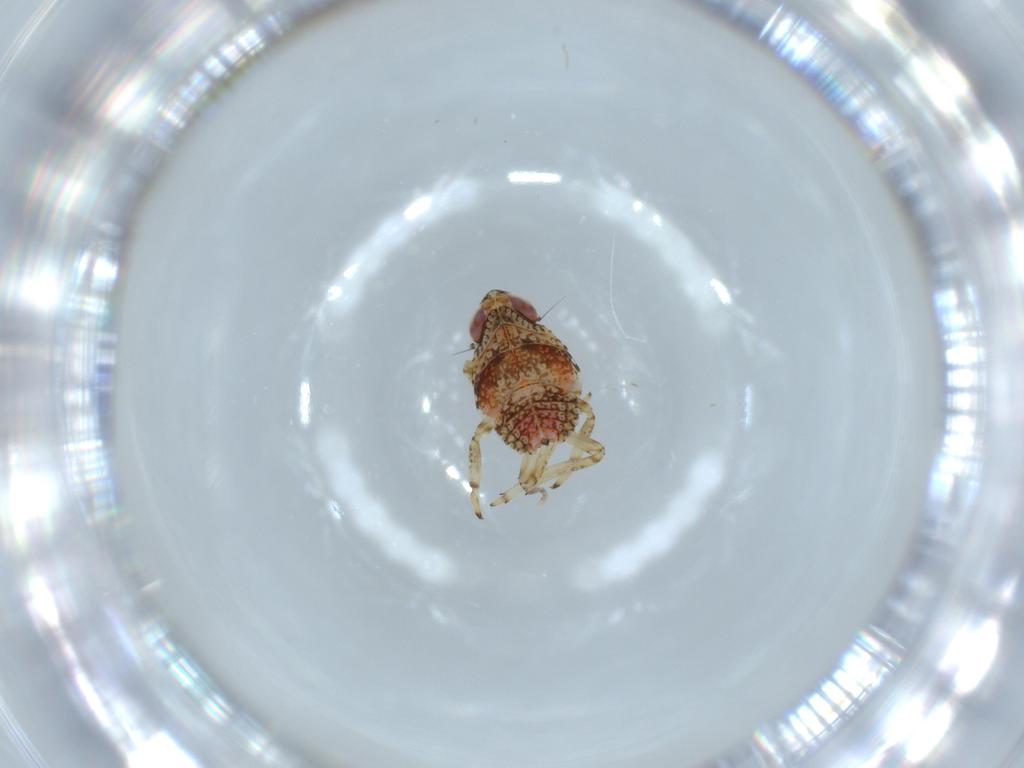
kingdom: Animalia
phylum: Arthropoda
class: Insecta
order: Hemiptera
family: Issidae
